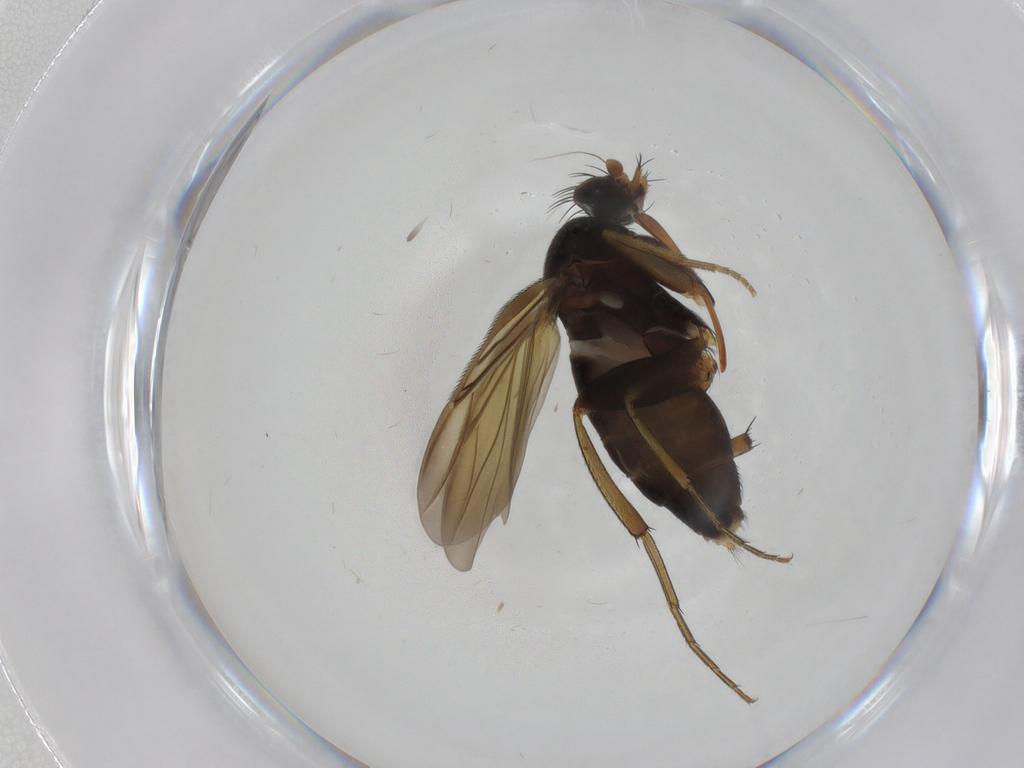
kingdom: Animalia
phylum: Arthropoda
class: Insecta
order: Diptera
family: Phoridae
